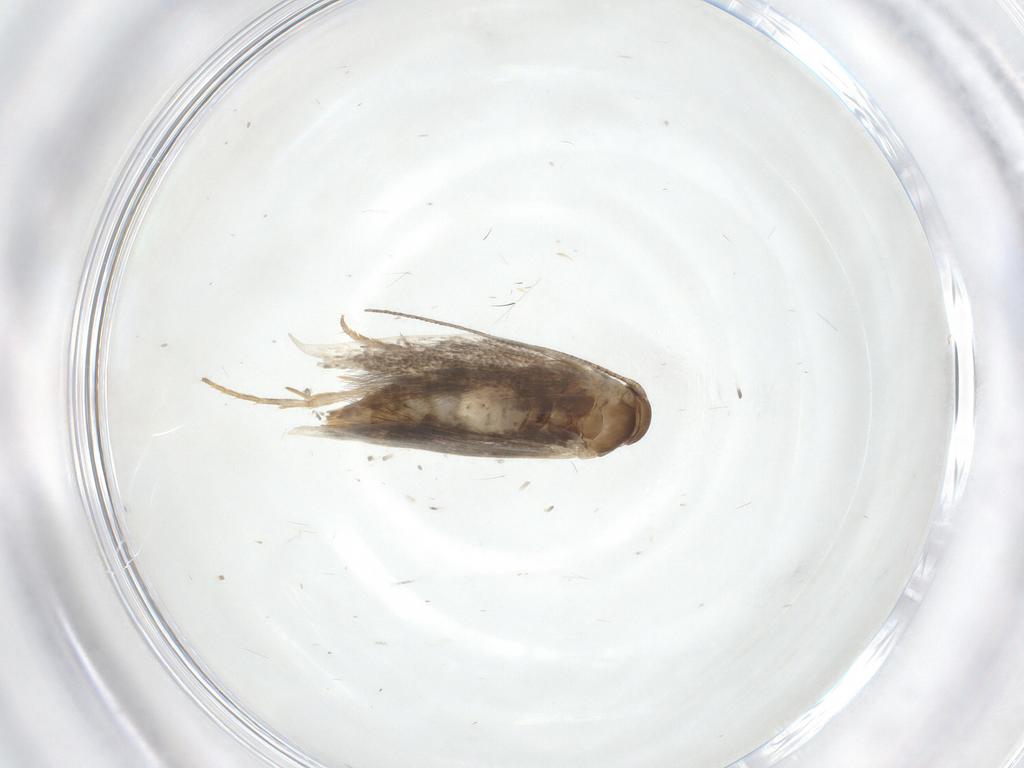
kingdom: Animalia
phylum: Arthropoda
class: Insecta
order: Lepidoptera
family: Elachistidae
